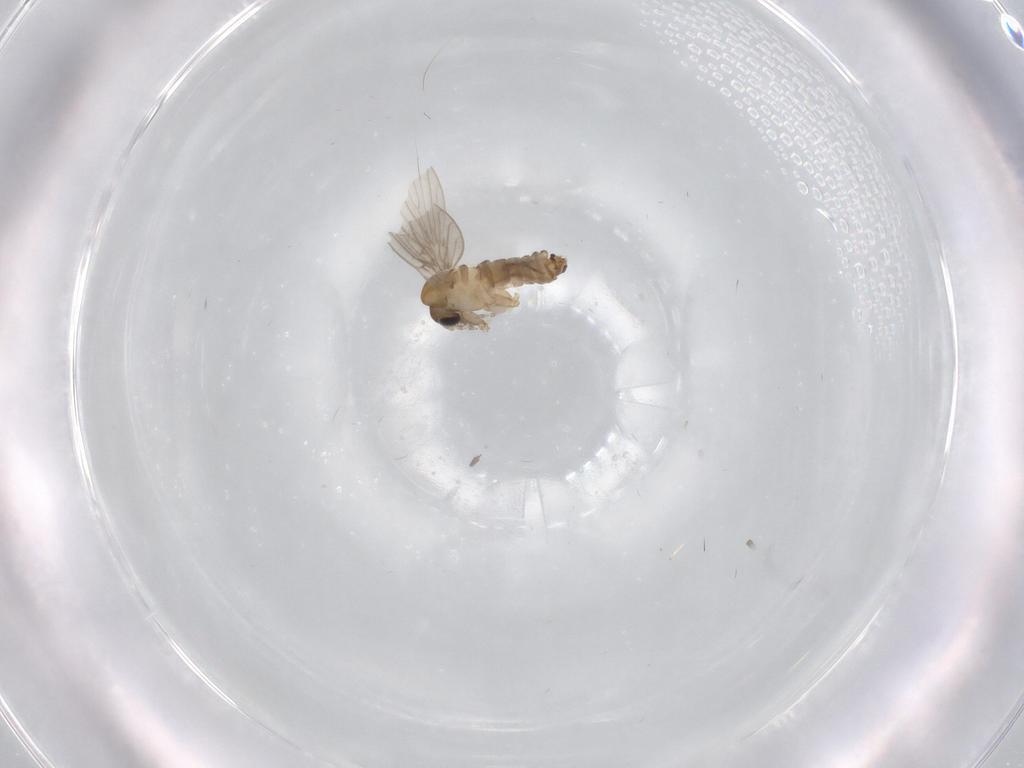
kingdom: Animalia
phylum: Arthropoda
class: Insecta
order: Diptera
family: Psychodidae
